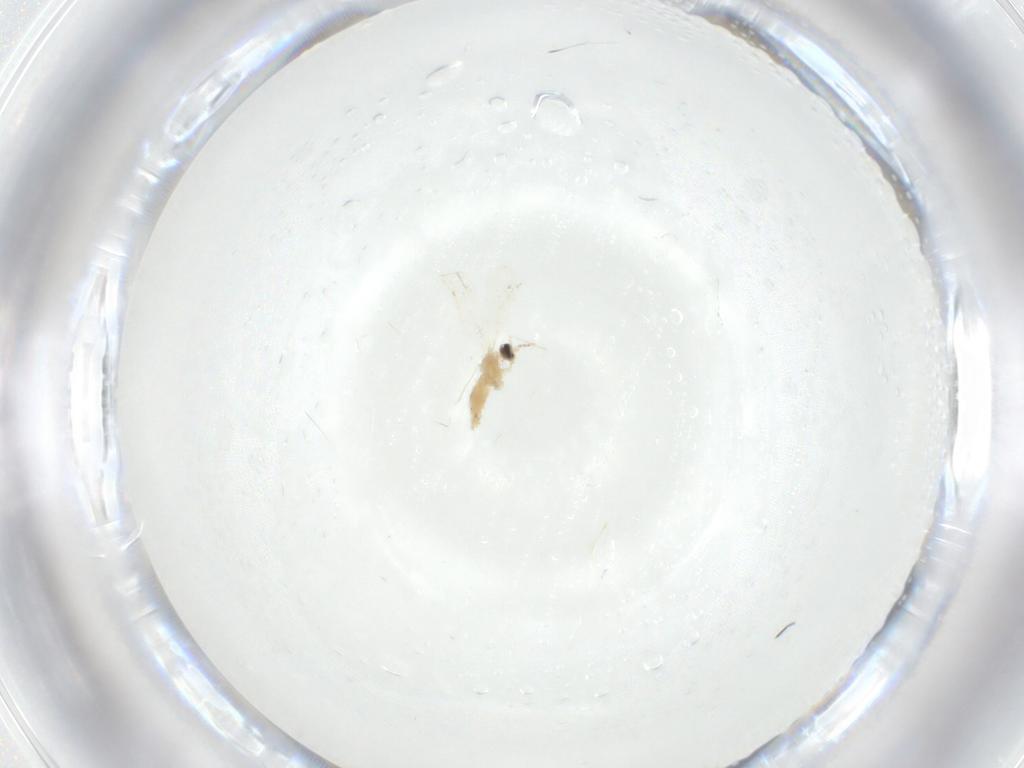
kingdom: Animalia
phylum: Arthropoda
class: Insecta
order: Diptera
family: Cecidomyiidae
